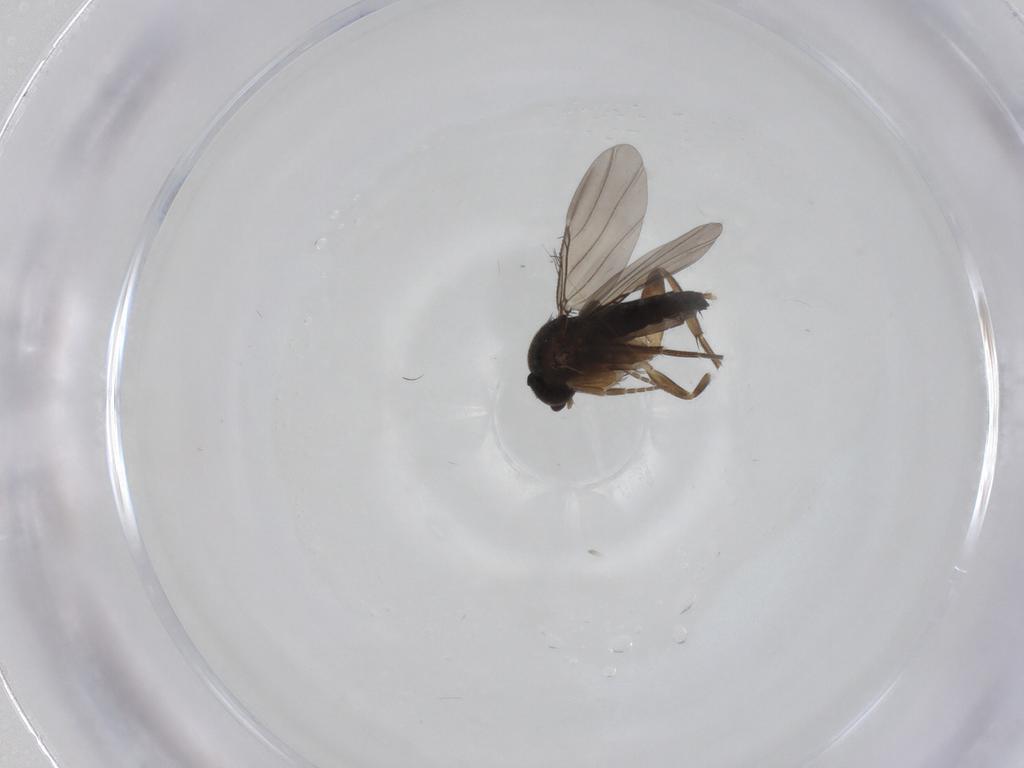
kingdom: Animalia
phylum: Arthropoda
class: Insecta
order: Diptera
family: Phoridae
